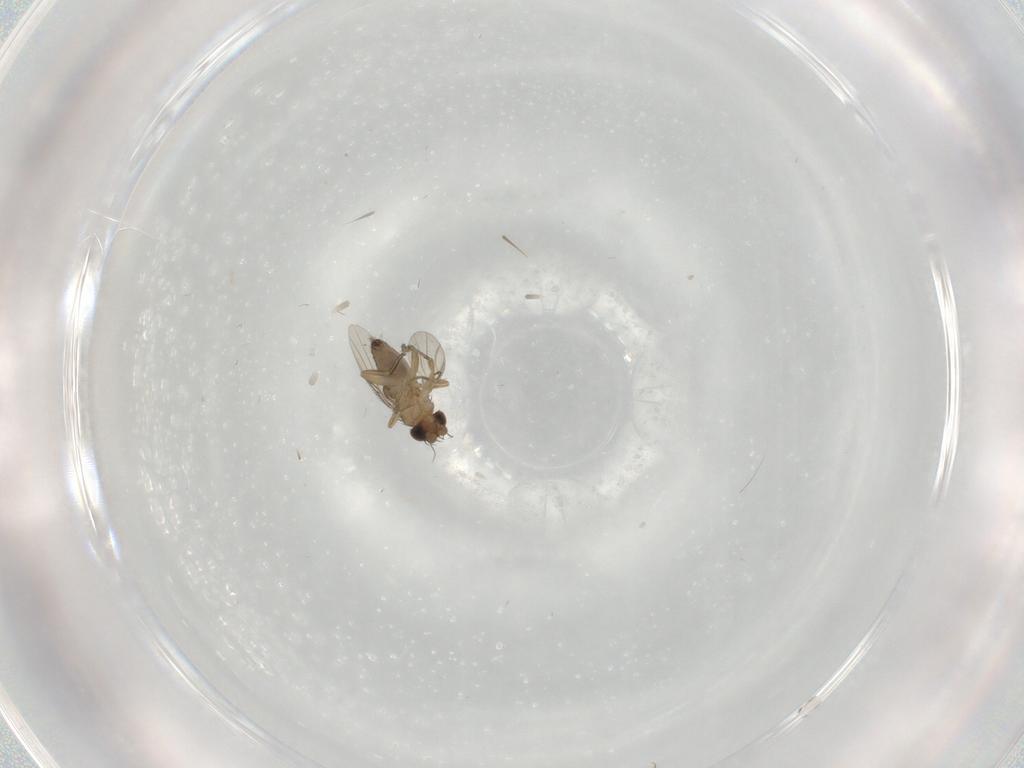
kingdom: Animalia
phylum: Arthropoda
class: Insecta
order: Diptera
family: Phoridae
